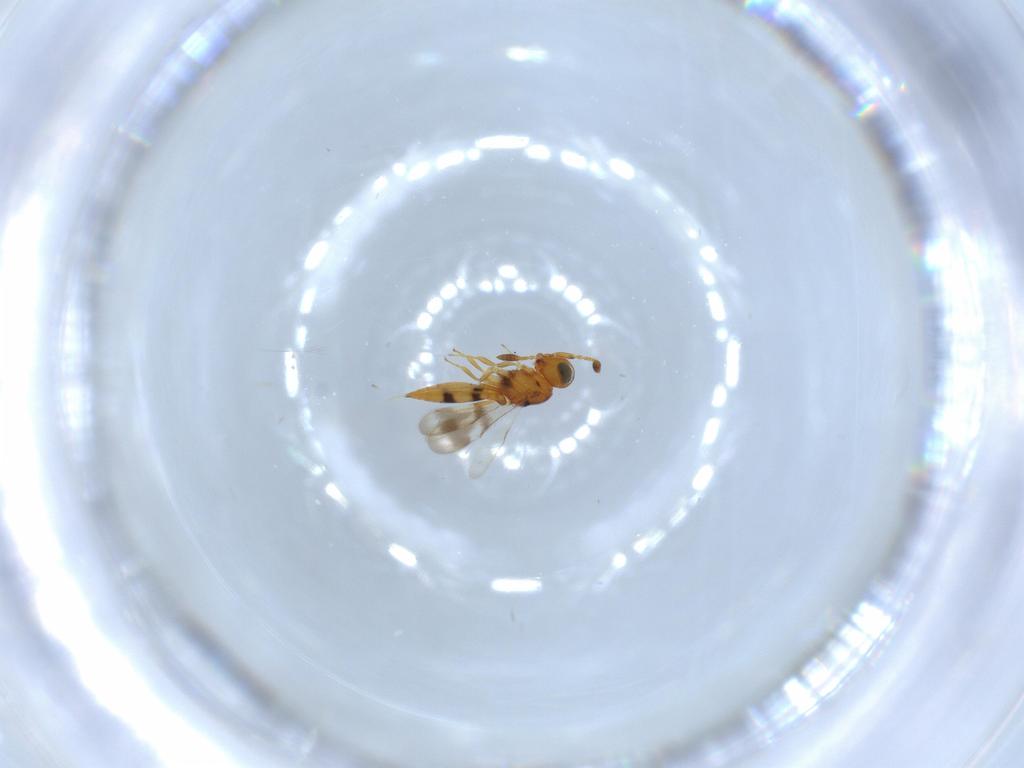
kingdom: Animalia
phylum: Arthropoda
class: Insecta
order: Hymenoptera
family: Scelionidae
